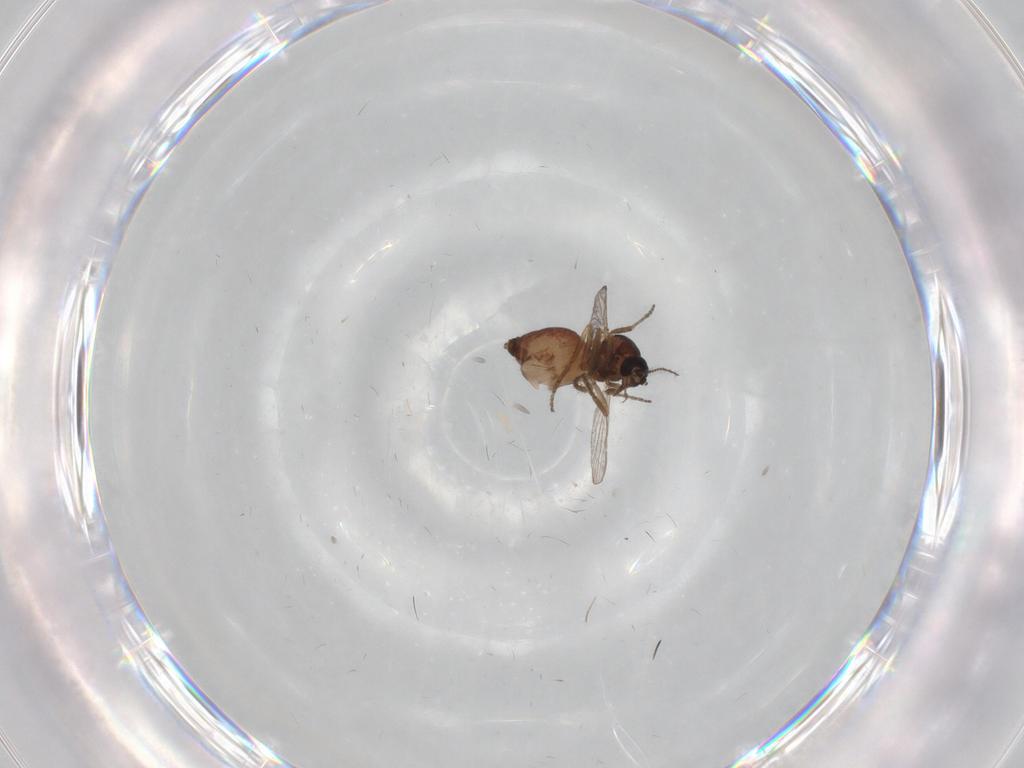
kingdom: Animalia
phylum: Arthropoda
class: Insecta
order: Diptera
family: Chironomidae
